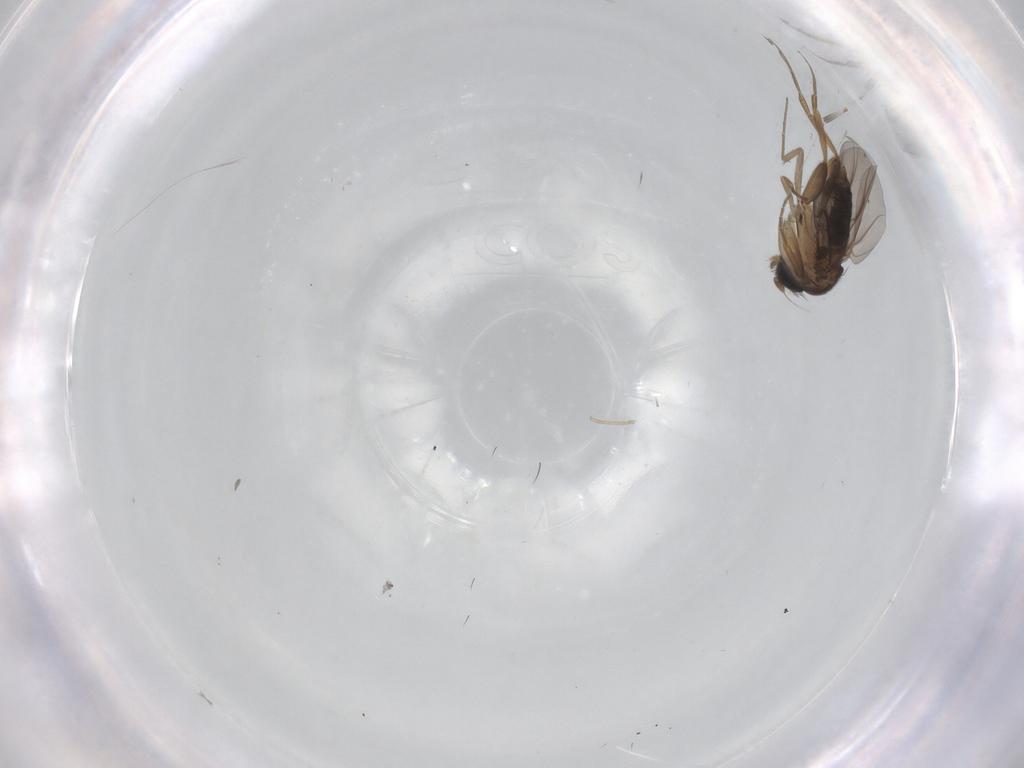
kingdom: Animalia
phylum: Arthropoda
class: Insecta
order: Diptera
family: Phoridae
